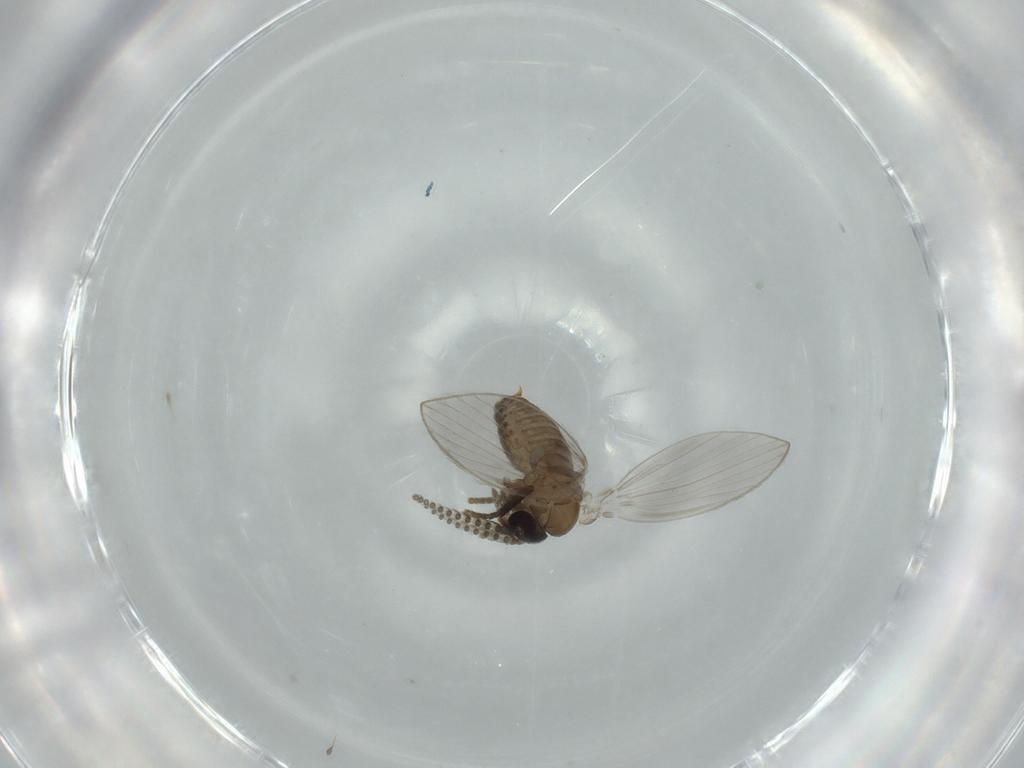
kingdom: Animalia
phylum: Arthropoda
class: Insecta
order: Diptera
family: Psychodidae
